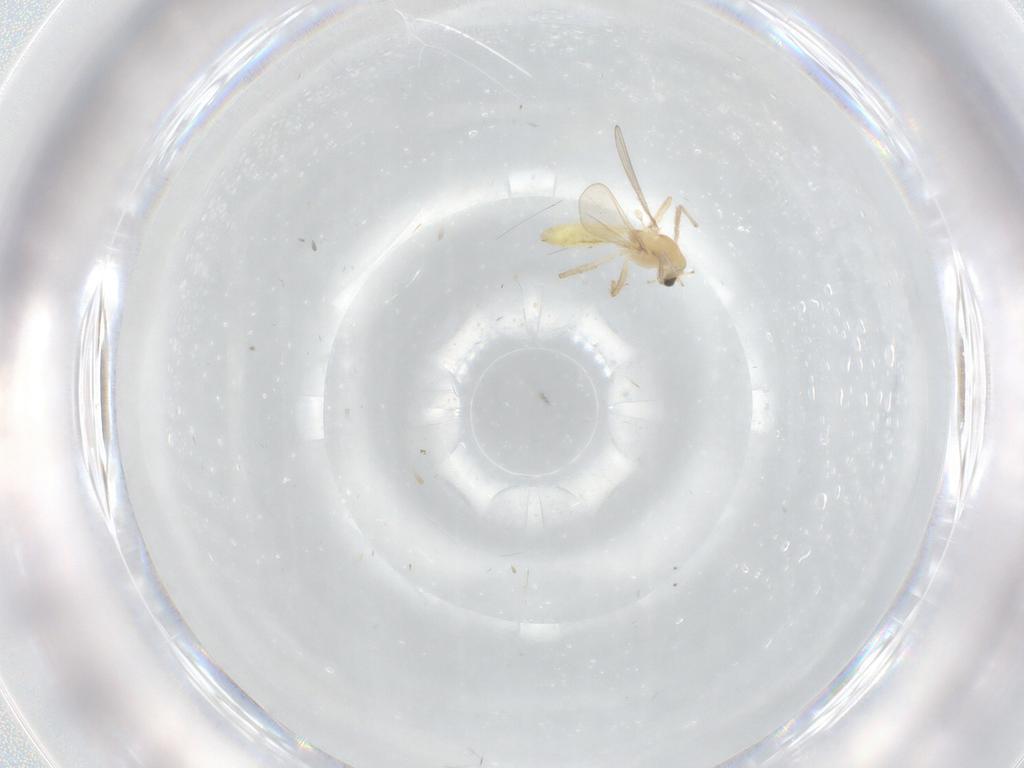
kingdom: Animalia
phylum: Arthropoda
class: Insecta
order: Diptera
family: Chironomidae
